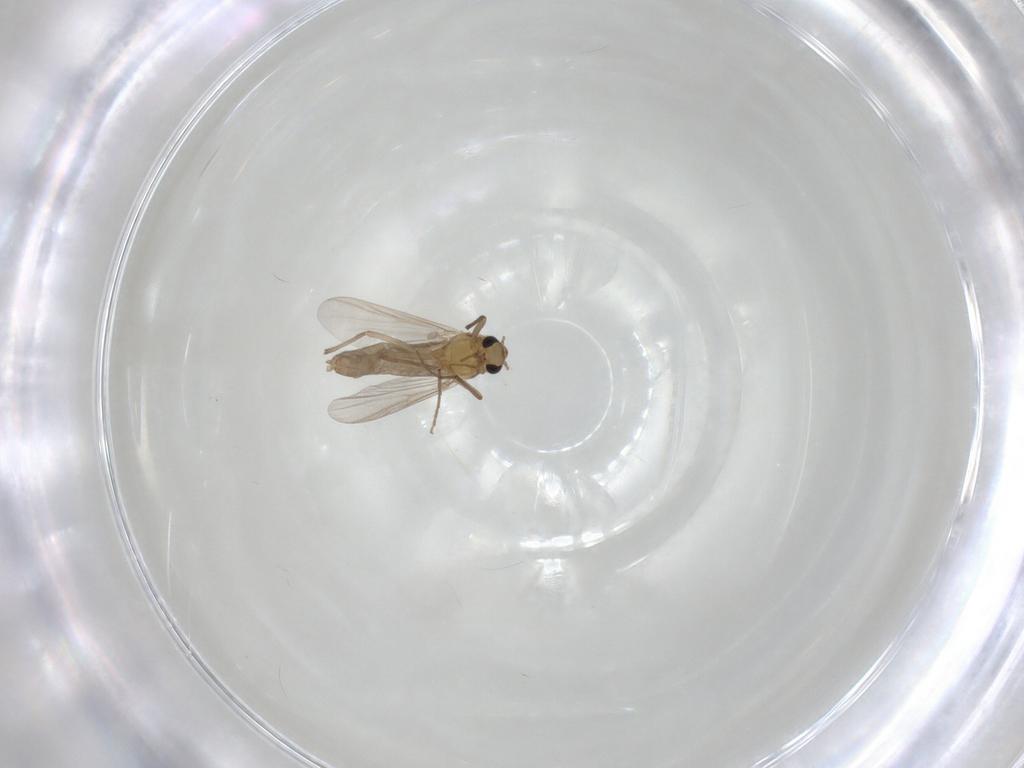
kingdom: Animalia
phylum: Arthropoda
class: Insecta
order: Diptera
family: Chironomidae
